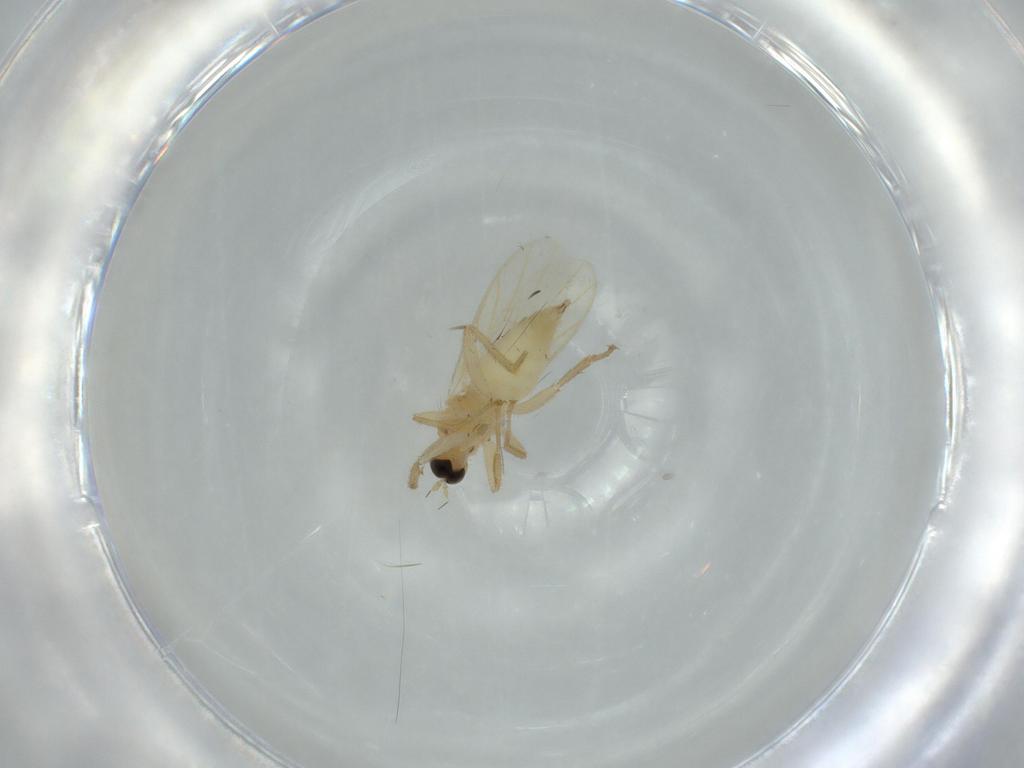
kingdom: Animalia
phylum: Arthropoda
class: Insecta
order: Diptera
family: Hybotidae
